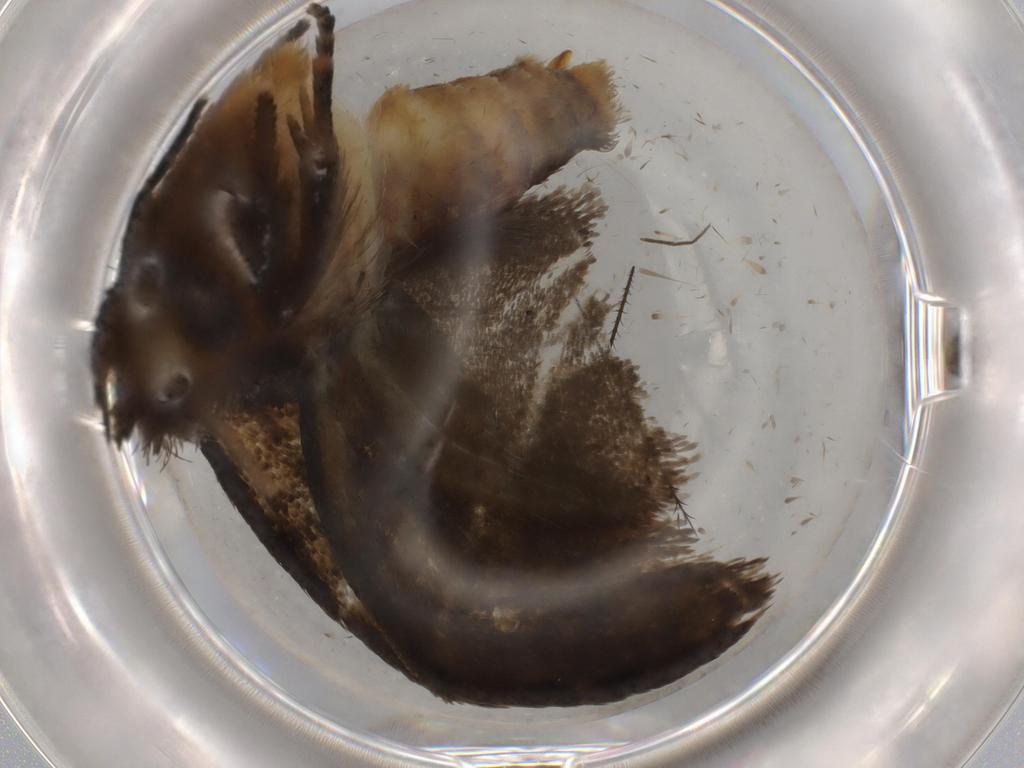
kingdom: Animalia
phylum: Arthropoda
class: Insecta
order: Lepidoptera
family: Tineidae
